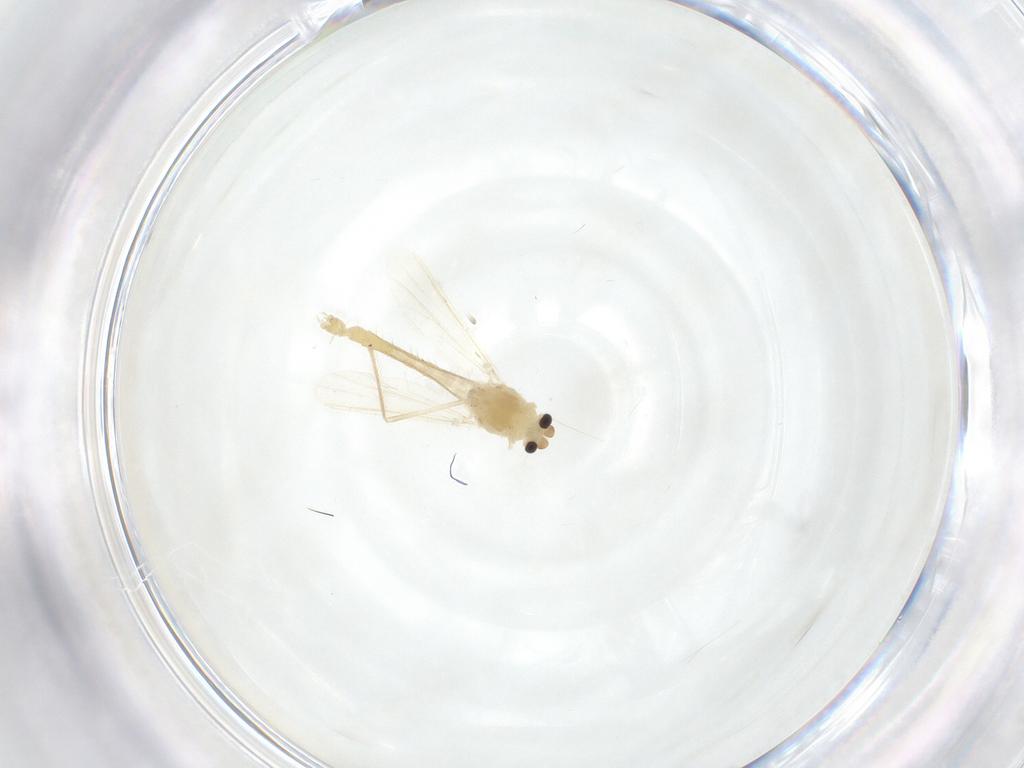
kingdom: Animalia
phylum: Arthropoda
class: Insecta
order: Diptera
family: Chironomidae
